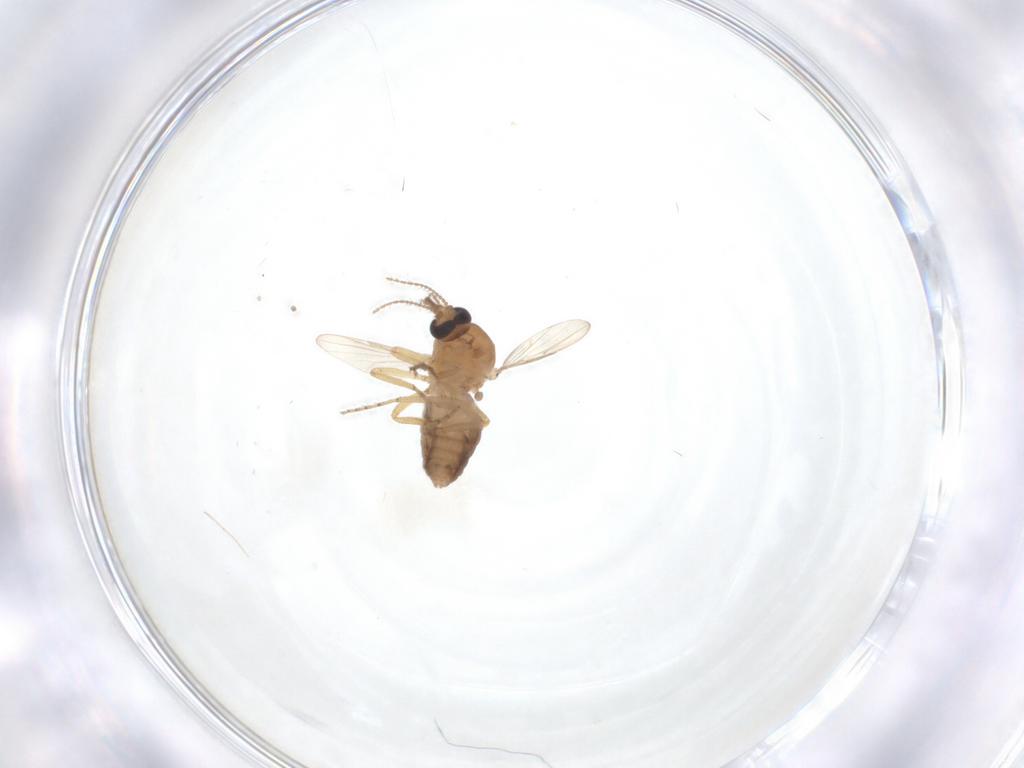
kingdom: Animalia
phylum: Arthropoda
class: Insecta
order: Diptera
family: Ceratopogonidae
